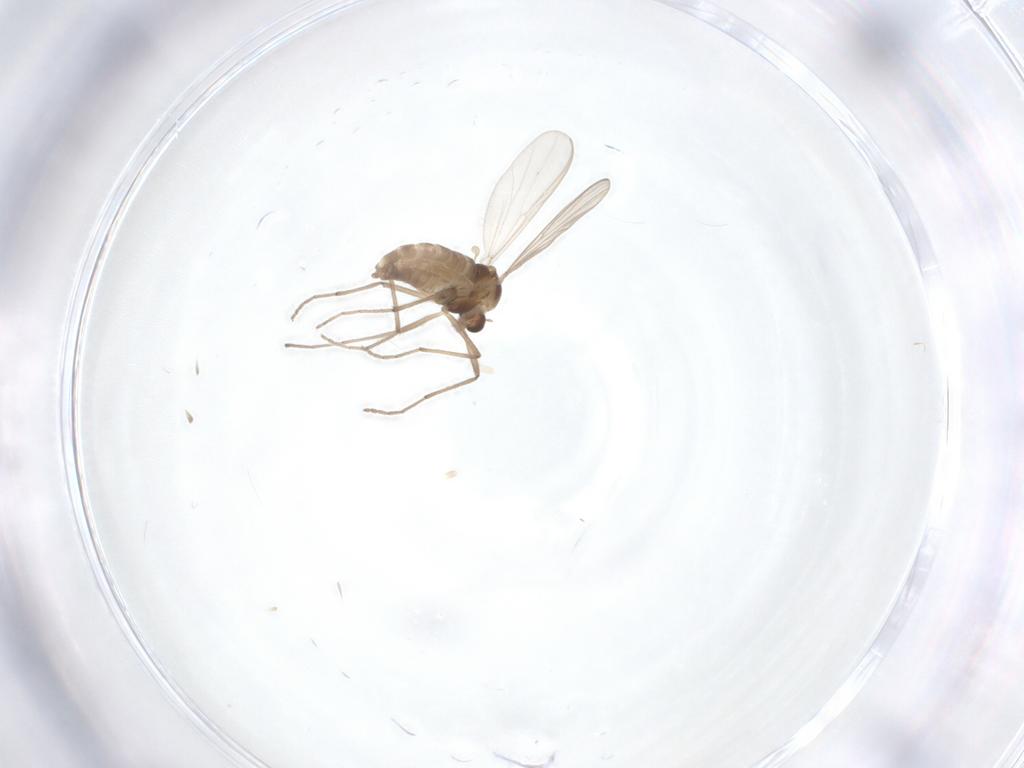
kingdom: Animalia
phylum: Arthropoda
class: Insecta
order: Diptera
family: Chironomidae
